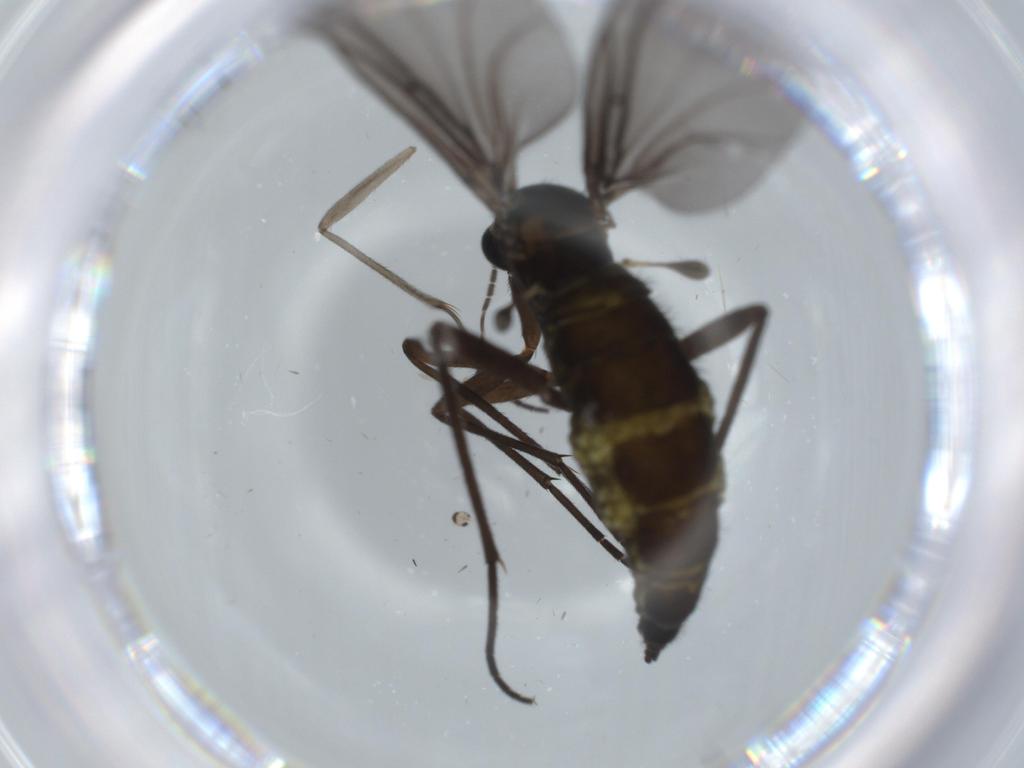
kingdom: Animalia
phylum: Arthropoda
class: Insecta
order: Diptera
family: Sciaridae
